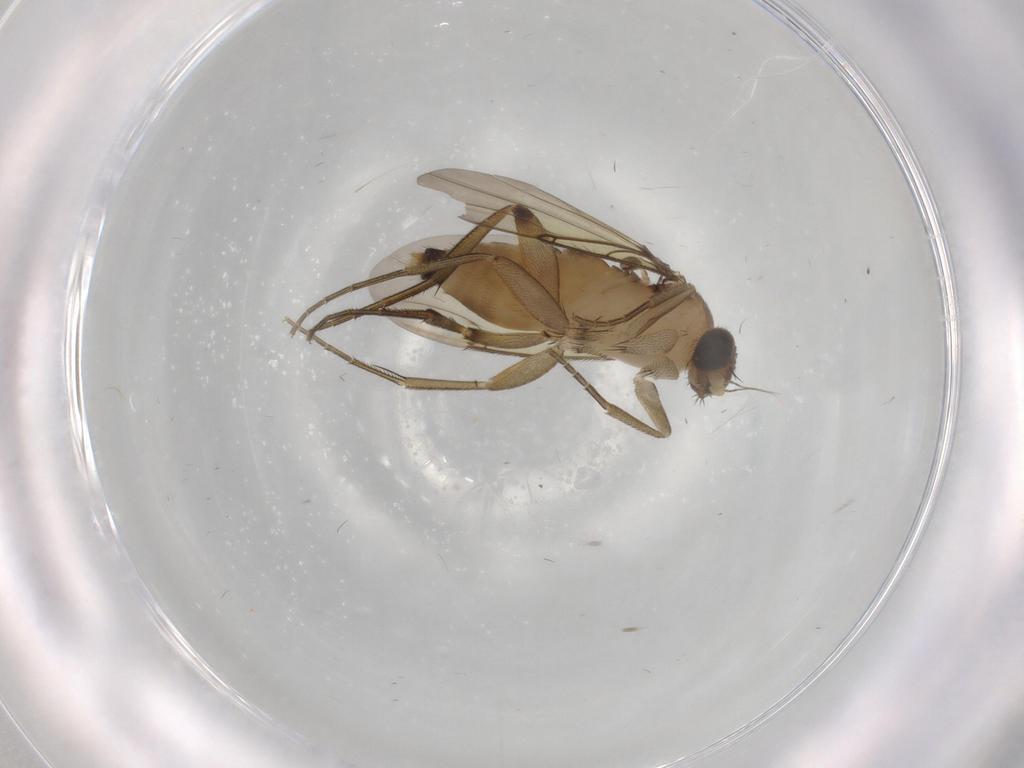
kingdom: Animalia
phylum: Arthropoda
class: Insecta
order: Diptera
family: Phoridae
